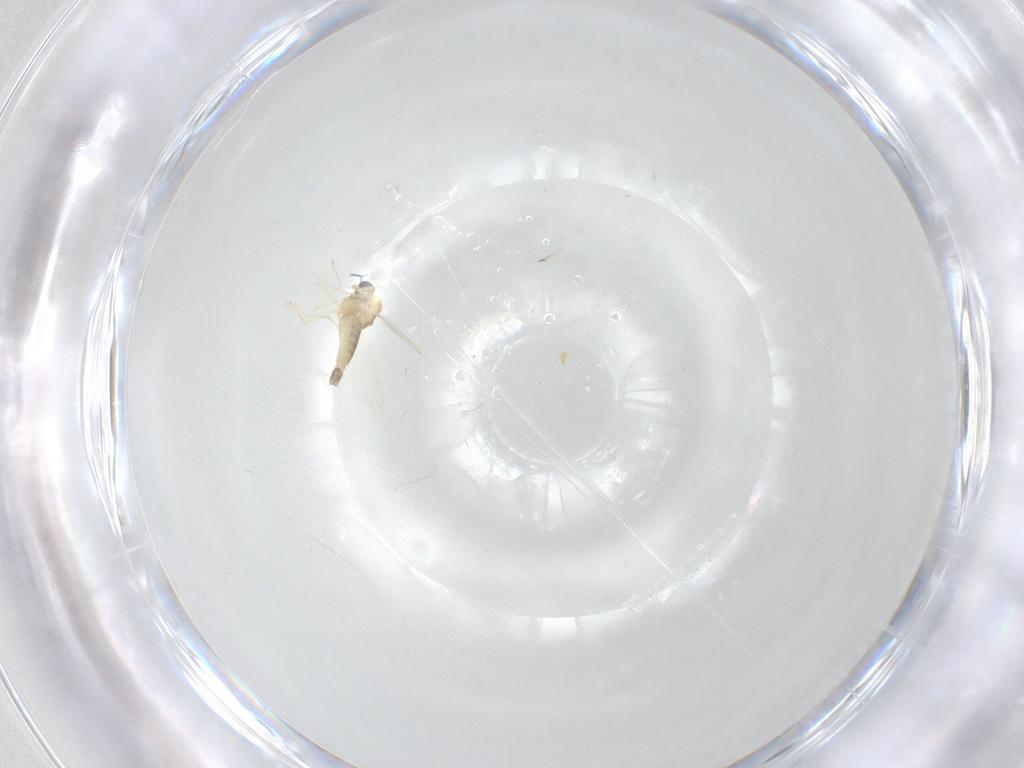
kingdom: Animalia
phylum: Arthropoda
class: Insecta
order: Diptera
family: Chironomidae
